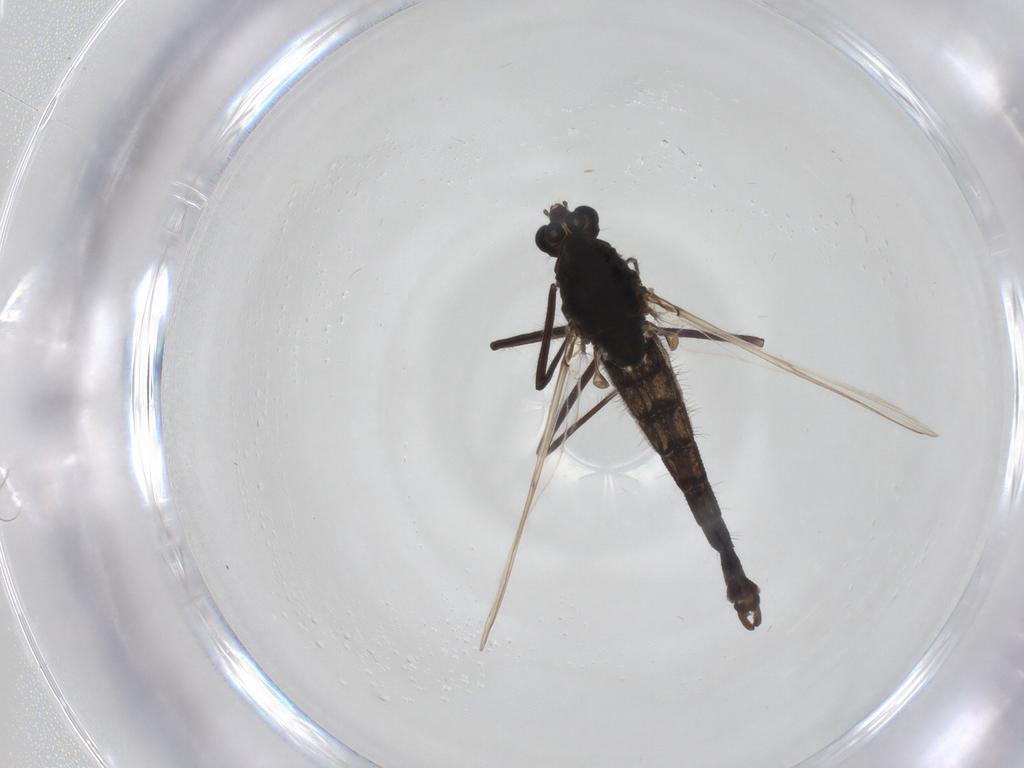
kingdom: Animalia
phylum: Arthropoda
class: Insecta
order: Diptera
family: Chironomidae
